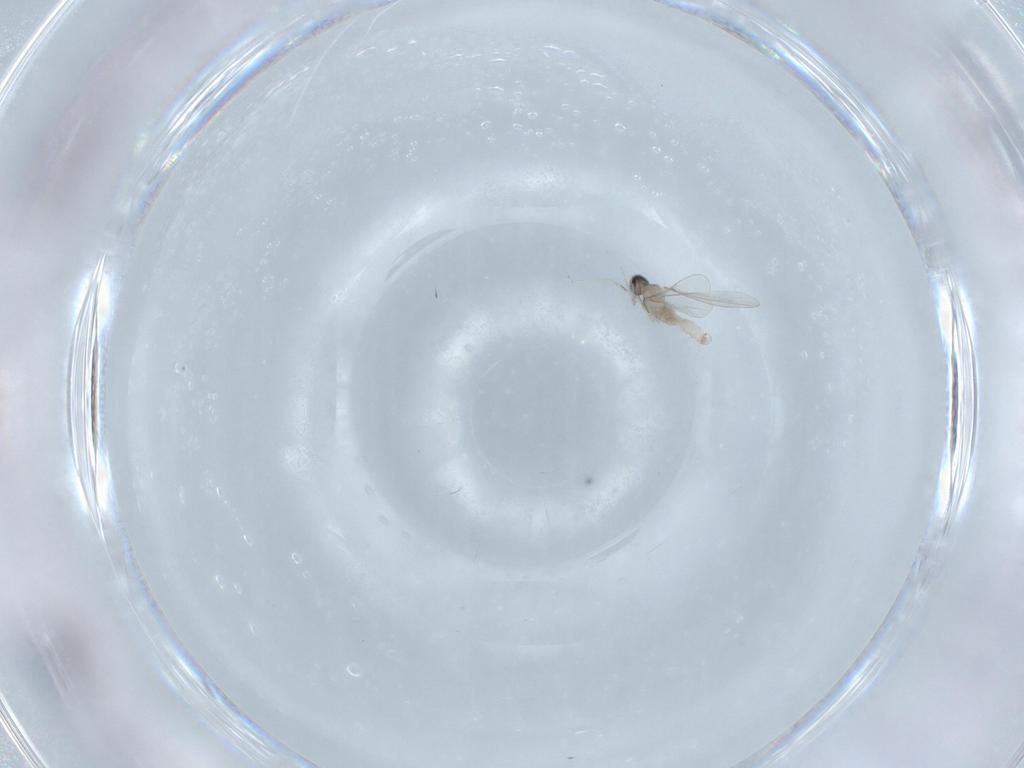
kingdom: Animalia
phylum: Arthropoda
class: Insecta
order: Diptera
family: Cecidomyiidae
